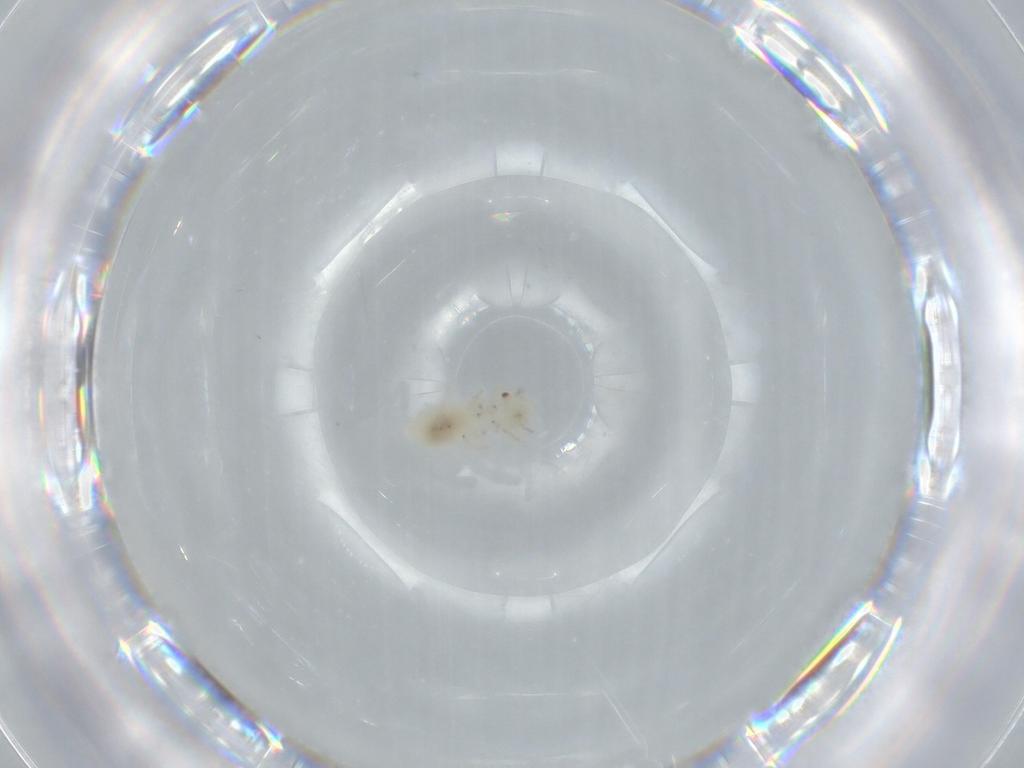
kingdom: Animalia
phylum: Arthropoda
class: Insecta
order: Psocodea
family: Caeciliusidae
